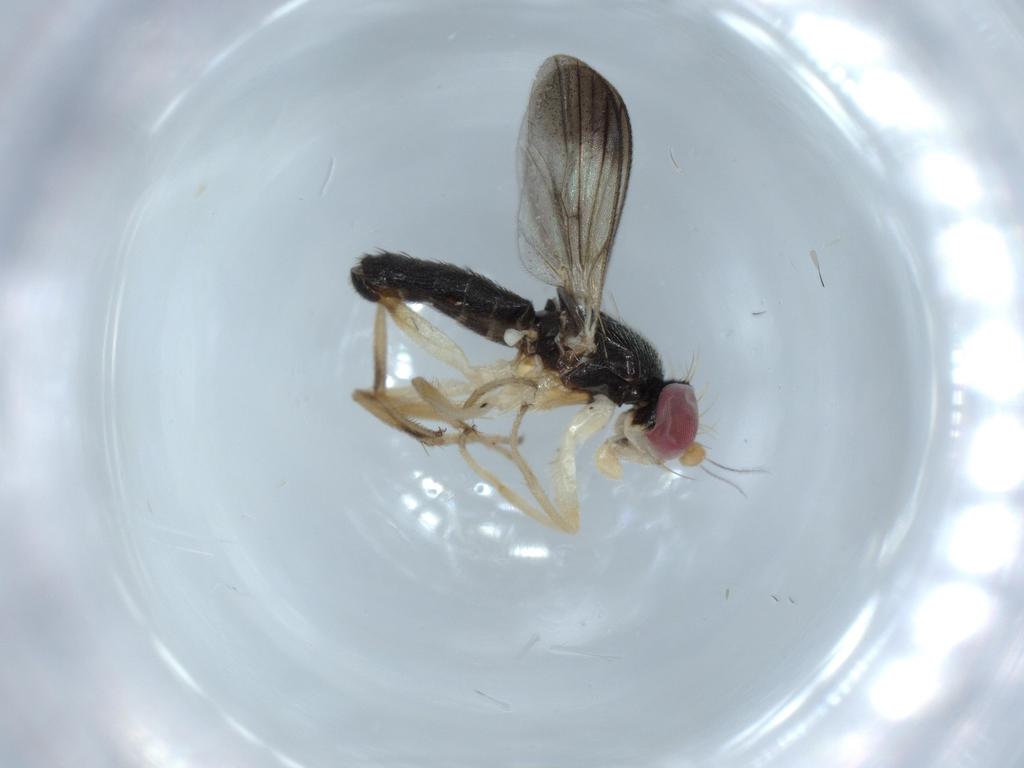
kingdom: Animalia
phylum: Arthropoda
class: Insecta
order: Diptera
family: Clusiidae
